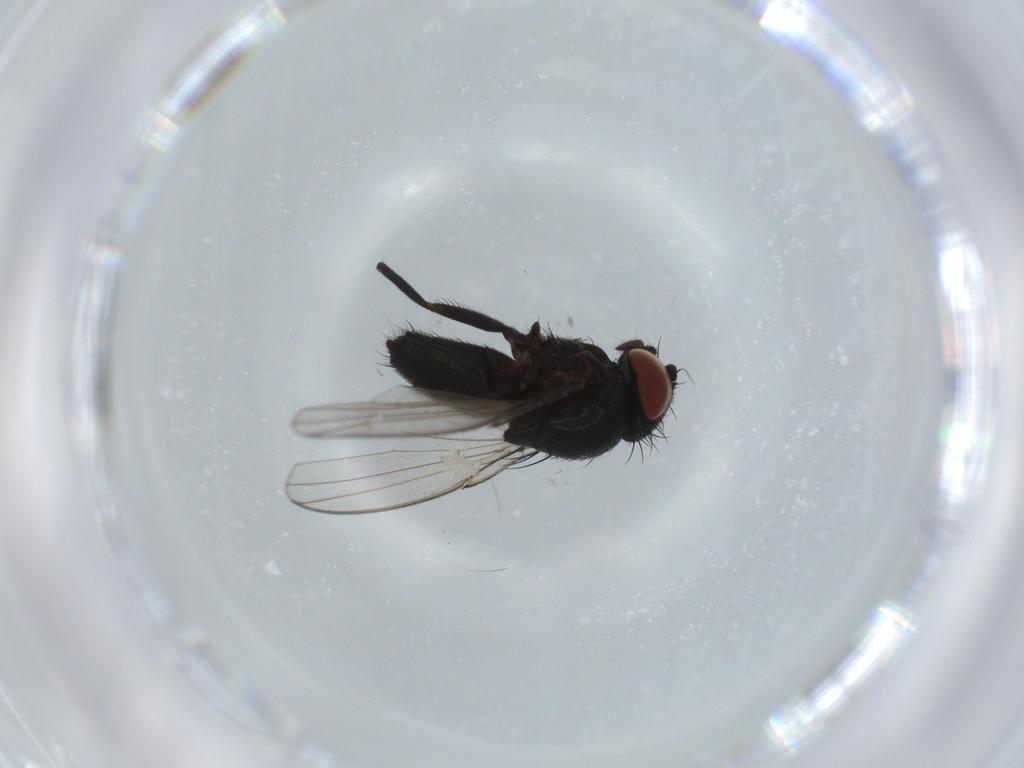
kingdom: Animalia
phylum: Arthropoda
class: Insecta
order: Diptera
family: Milichiidae
